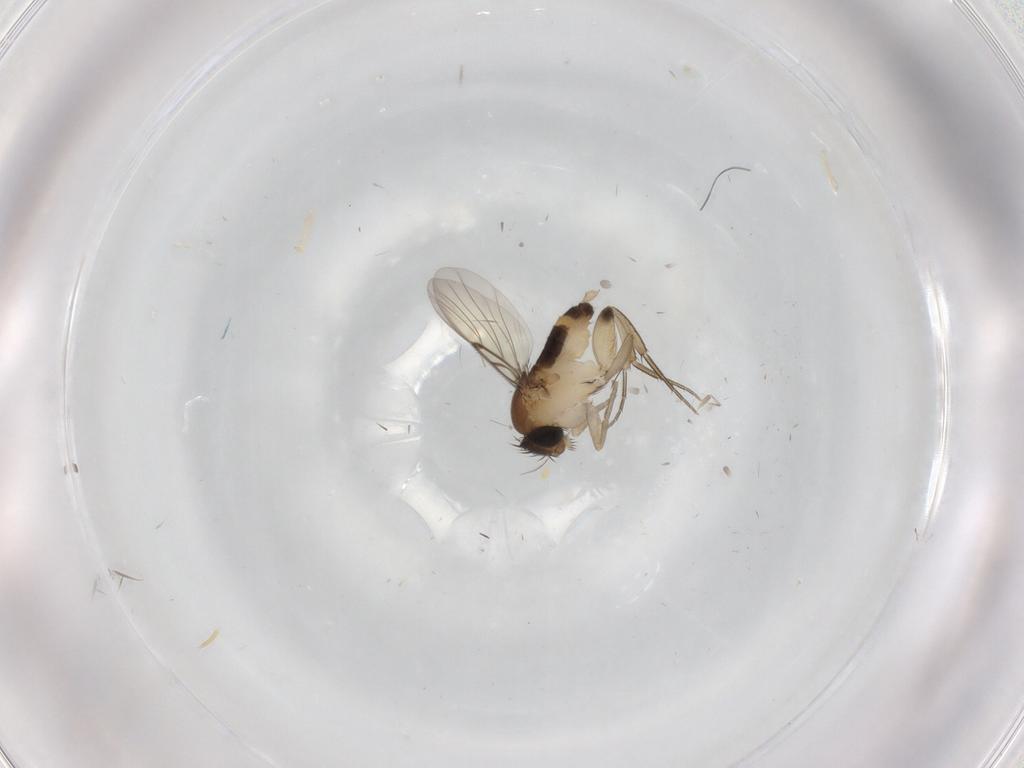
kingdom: Animalia
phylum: Arthropoda
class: Insecta
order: Diptera
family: Phoridae
